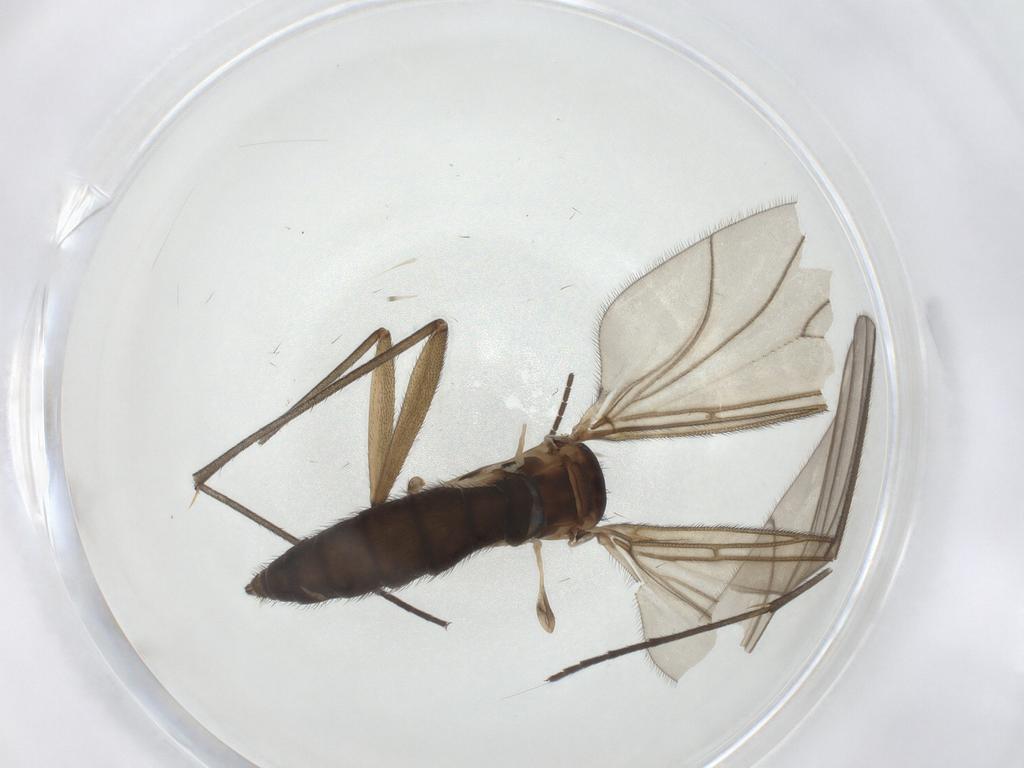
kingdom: Animalia
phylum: Arthropoda
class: Insecta
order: Diptera
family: Sciaridae
